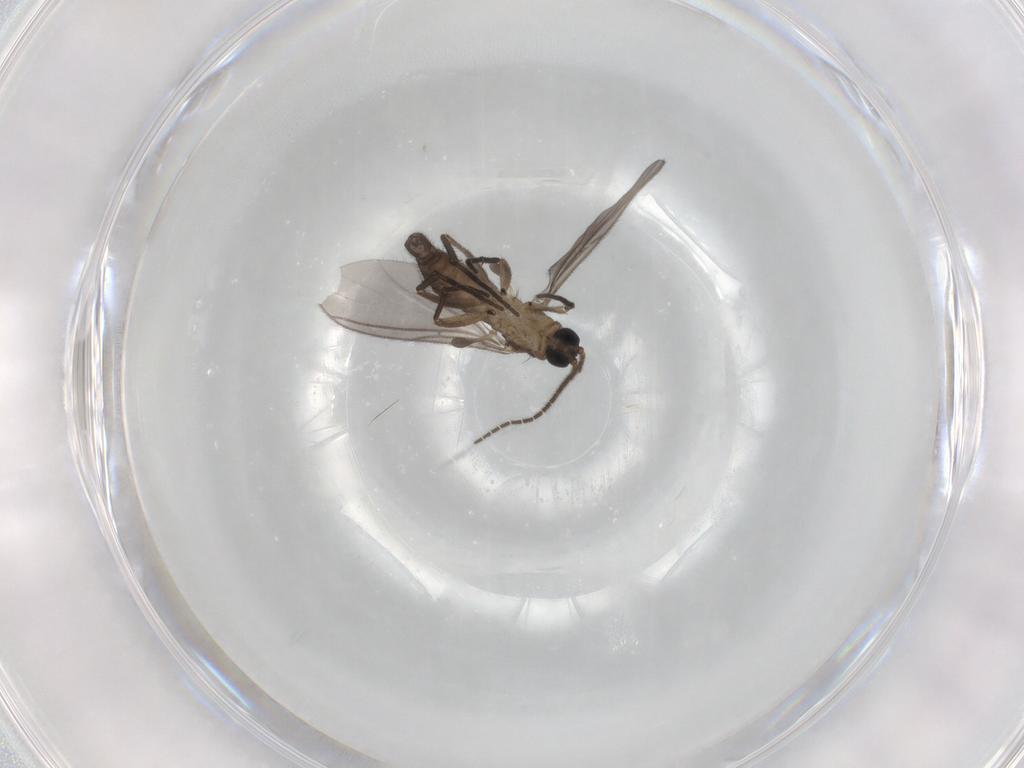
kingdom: Animalia
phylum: Arthropoda
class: Insecta
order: Diptera
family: Sciaridae
